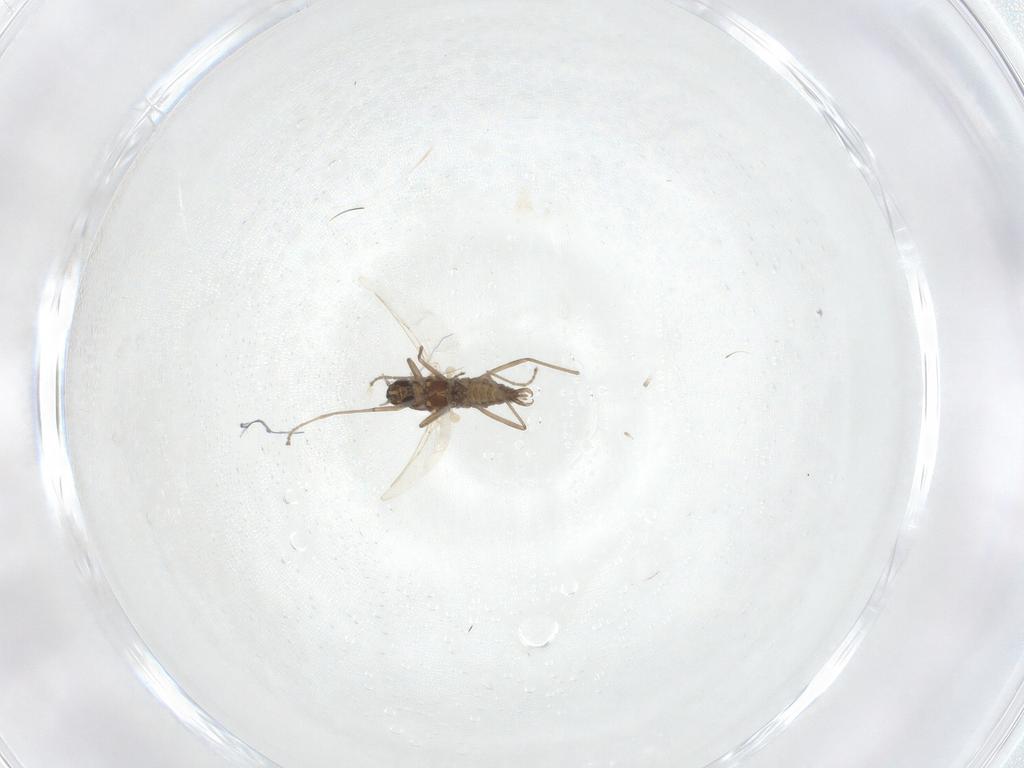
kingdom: Animalia
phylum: Arthropoda
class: Insecta
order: Diptera
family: Cecidomyiidae
